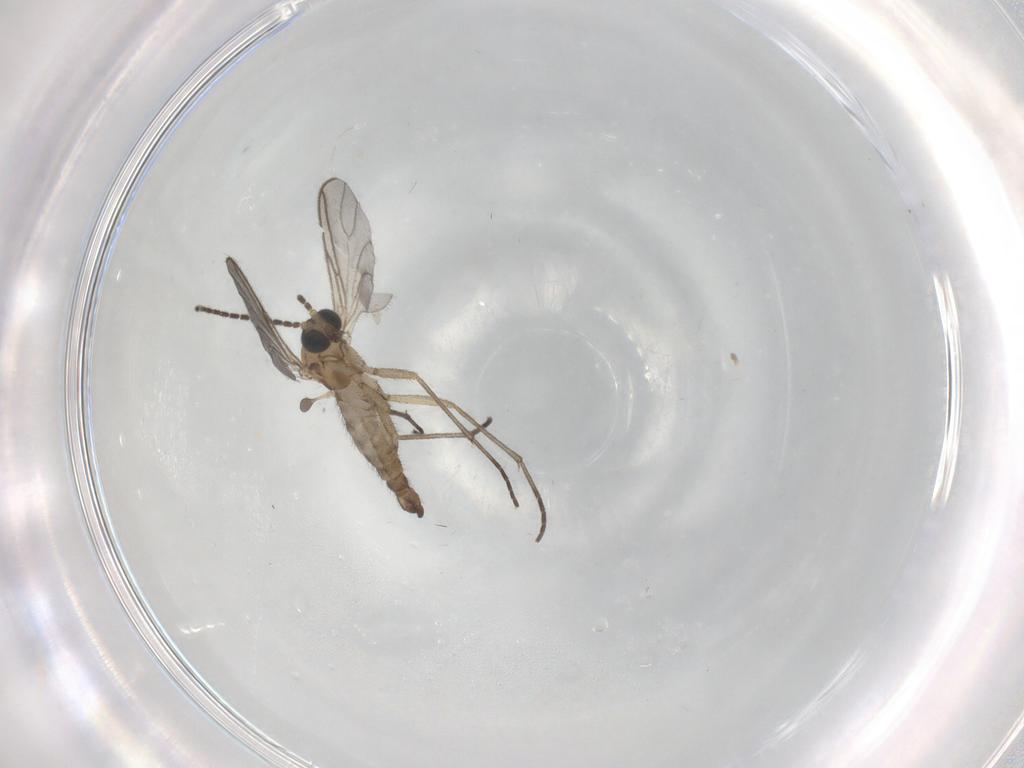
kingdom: Animalia
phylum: Arthropoda
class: Insecta
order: Diptera
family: Sciaridae
